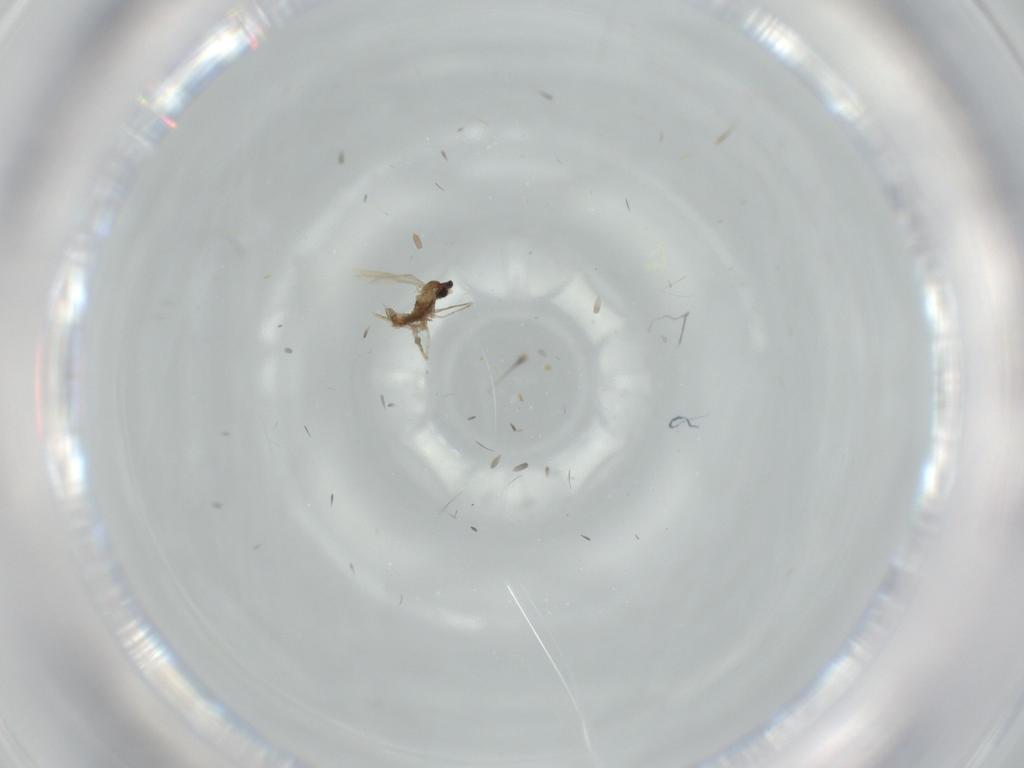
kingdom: Animalia
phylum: Arthropoda
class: Insecta
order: Diptera
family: Cecidomyiidae
